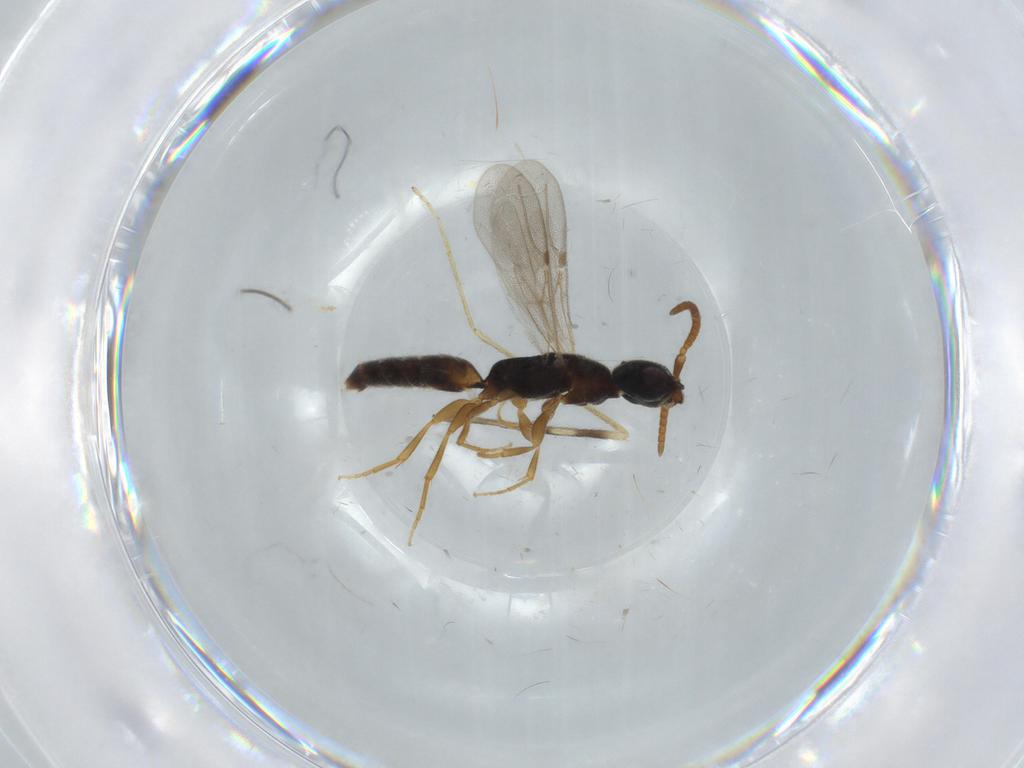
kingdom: Animalia
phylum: Arthropoda
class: Insecta
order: Hymenoptera
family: Bethylidae
